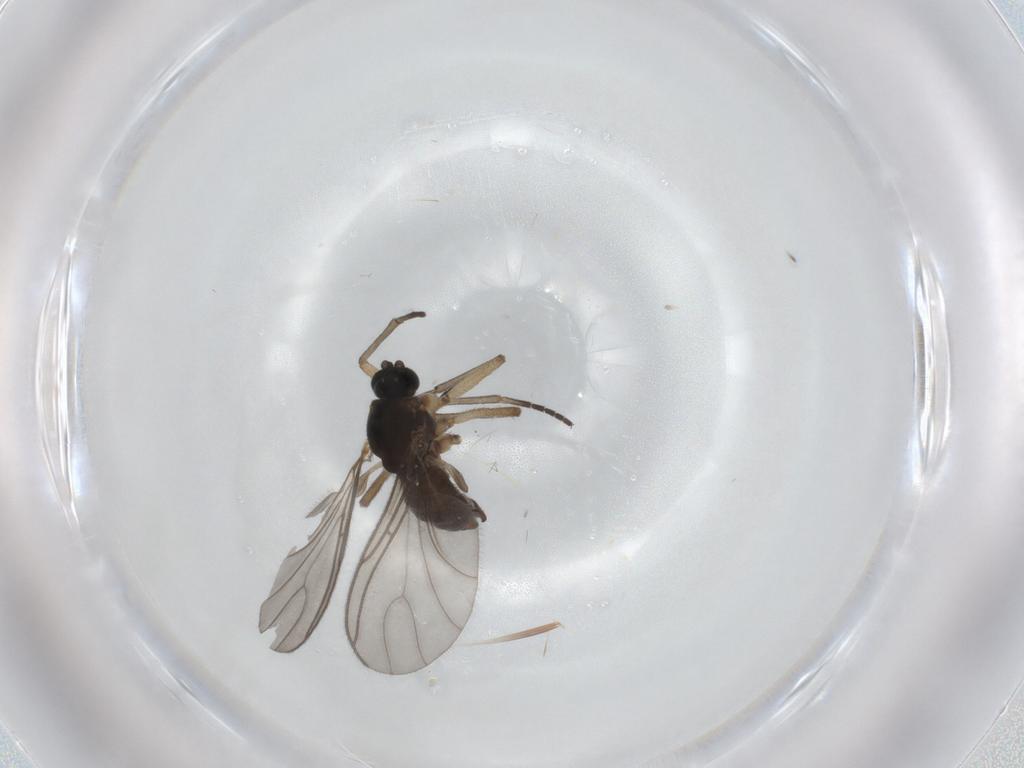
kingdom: Animalia
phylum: Arthropoda
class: Insecta
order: Diptera
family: Sciaridae
